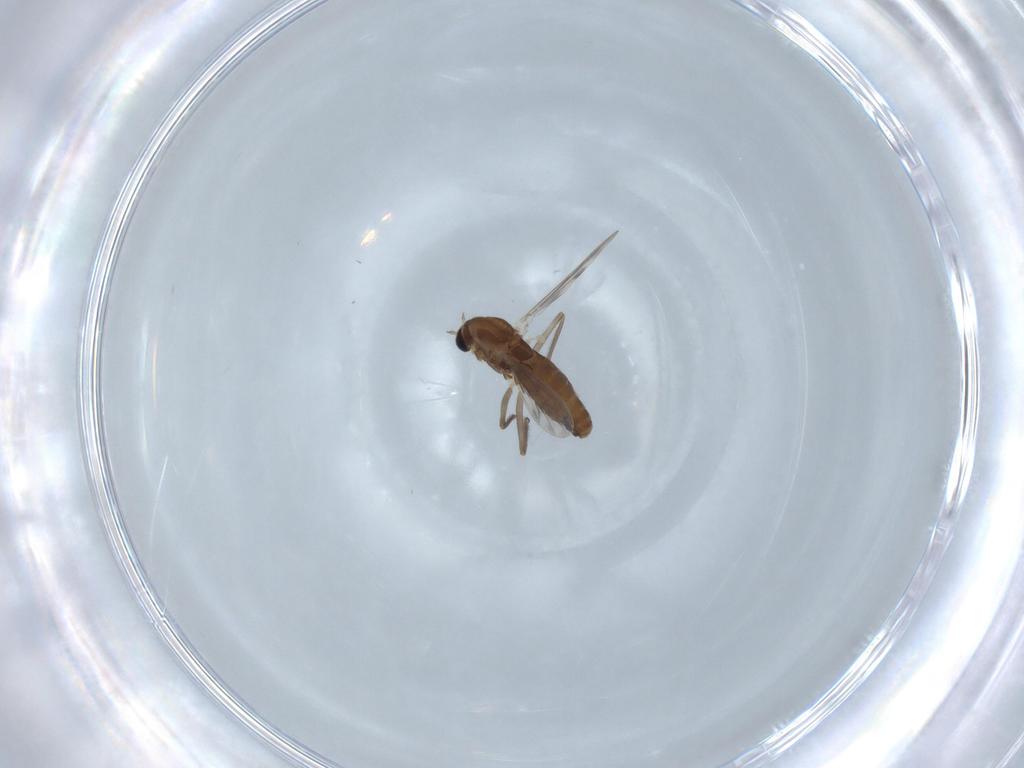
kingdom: Animalia
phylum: Arthropoda
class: Insecta
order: Diptera
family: Chironomidae
